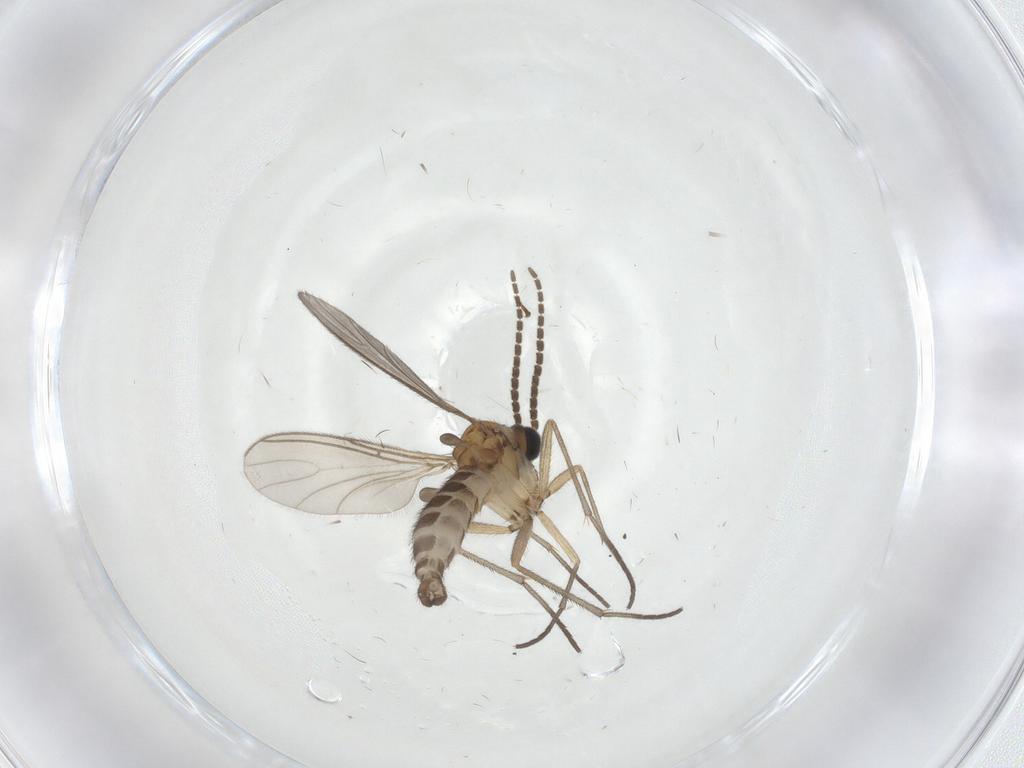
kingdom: Animalia
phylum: Arthropoda
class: Insecta
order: Diptera
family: Sciaridae
